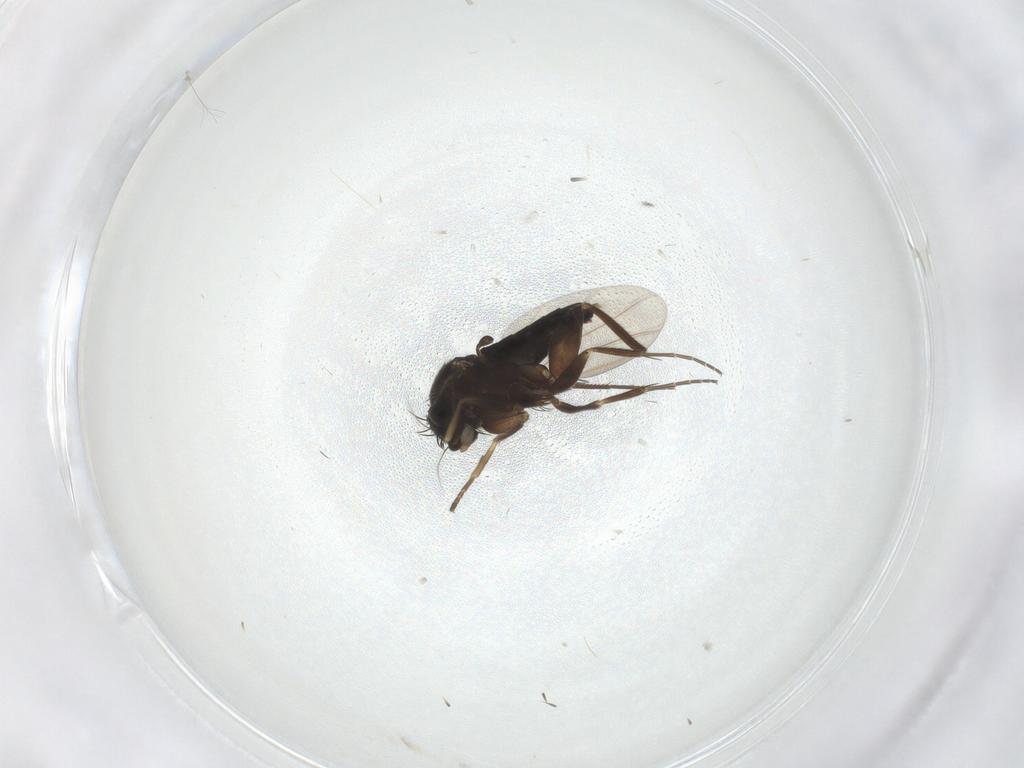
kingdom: Animalia
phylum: Arthropoda
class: Insecta
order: Diptera
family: Phoridae
